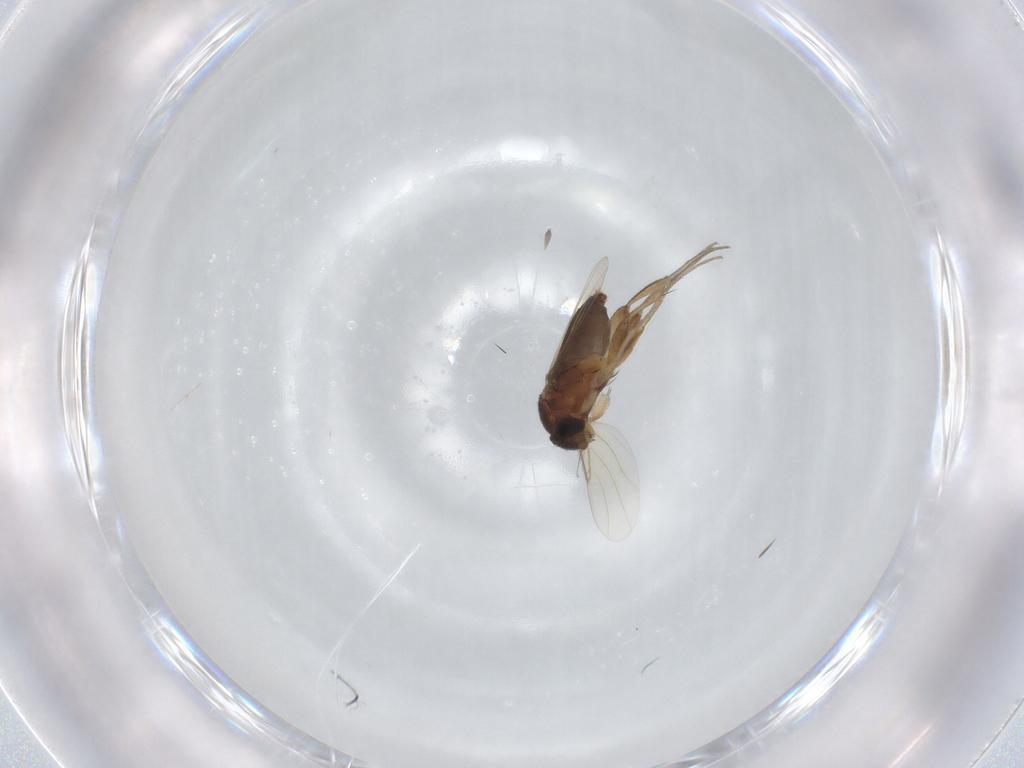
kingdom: Animalia
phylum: Arthropoda
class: Insecta
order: Diptera
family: Phoridae
